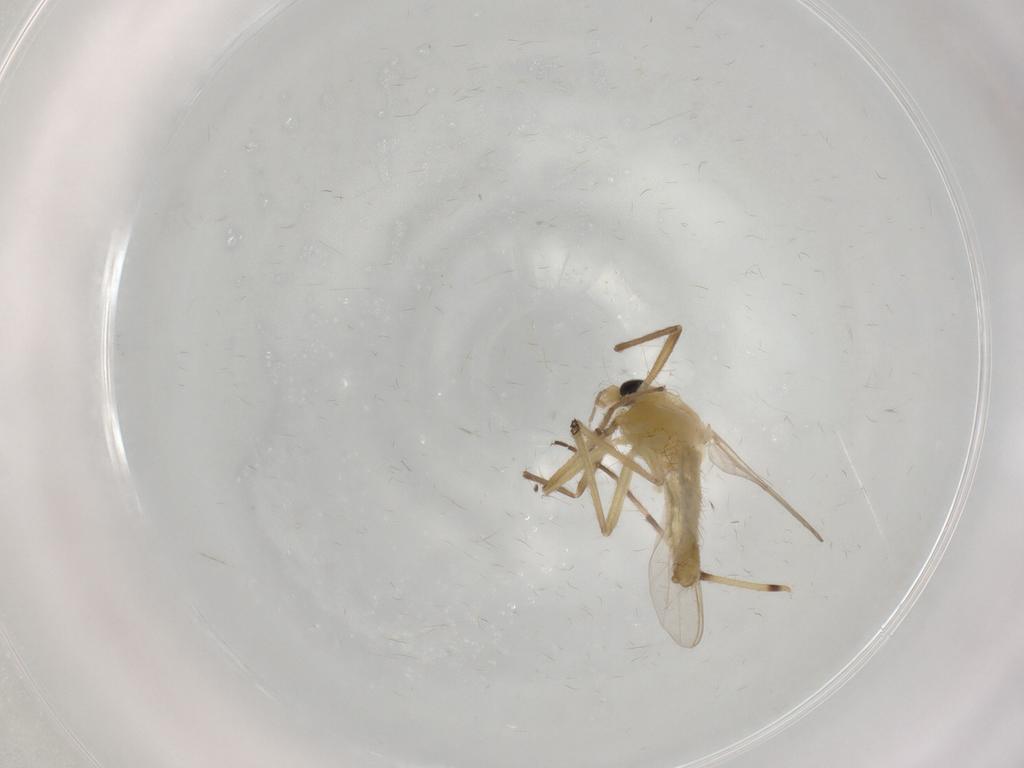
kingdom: Animalia
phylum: Arthropoda
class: Insecta
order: Diptera
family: Chironomidae
